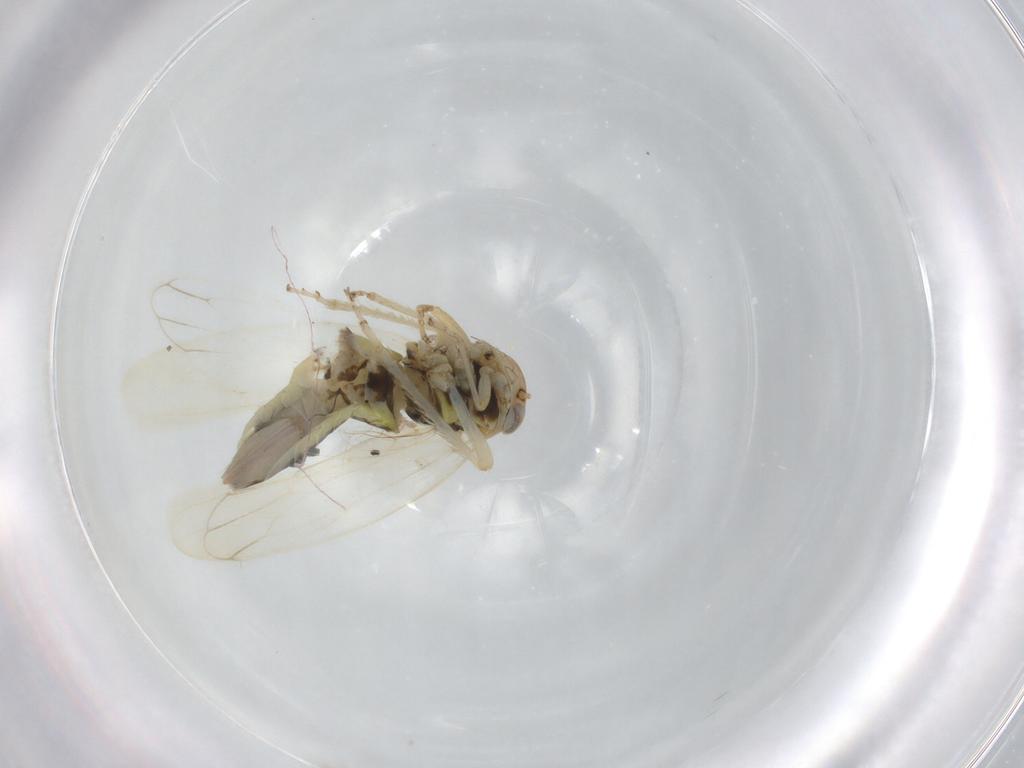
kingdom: Animalia
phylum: Arthropoda
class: Insecta
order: Hemiptera
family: Cicadellidae
